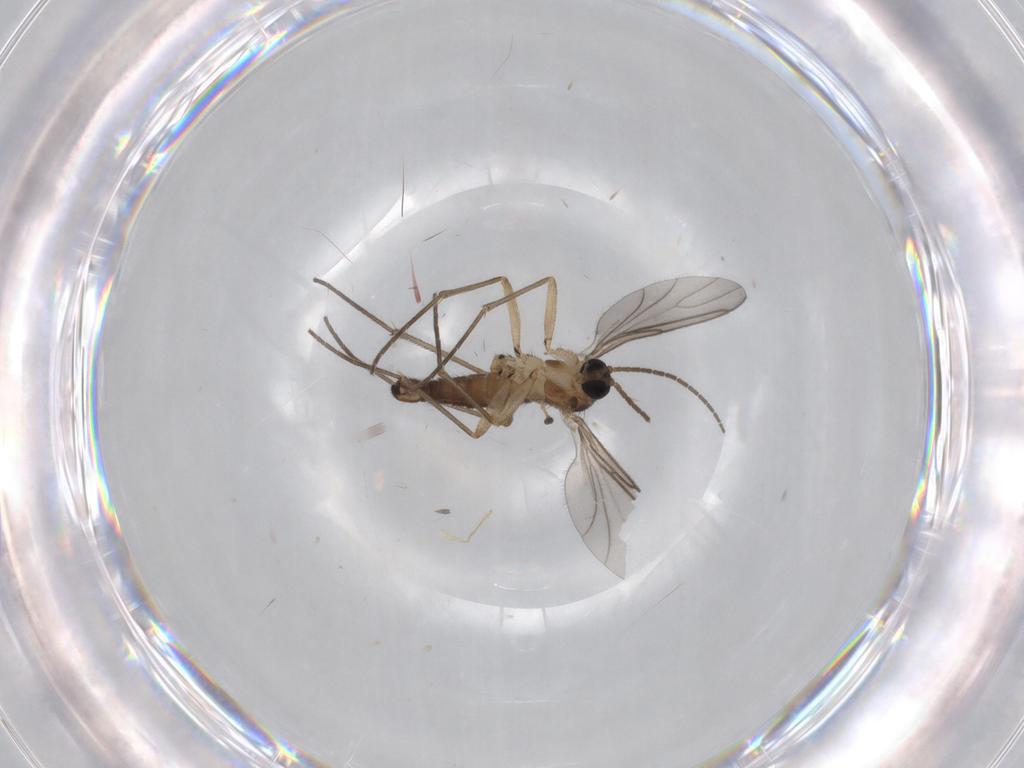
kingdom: Animalia
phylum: Arthropoda
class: Insecta
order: Diptera
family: Sciaridae
